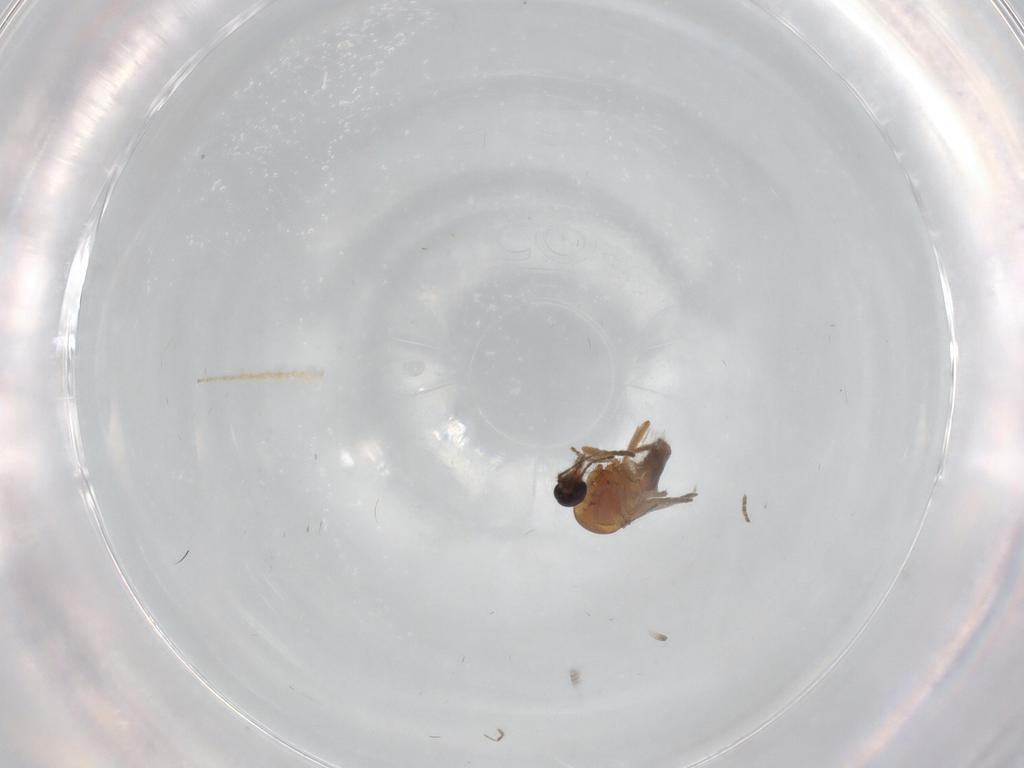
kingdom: Animalia
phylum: Arthropoda
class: Insecta
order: Diptera
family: Ceratopogonidae
